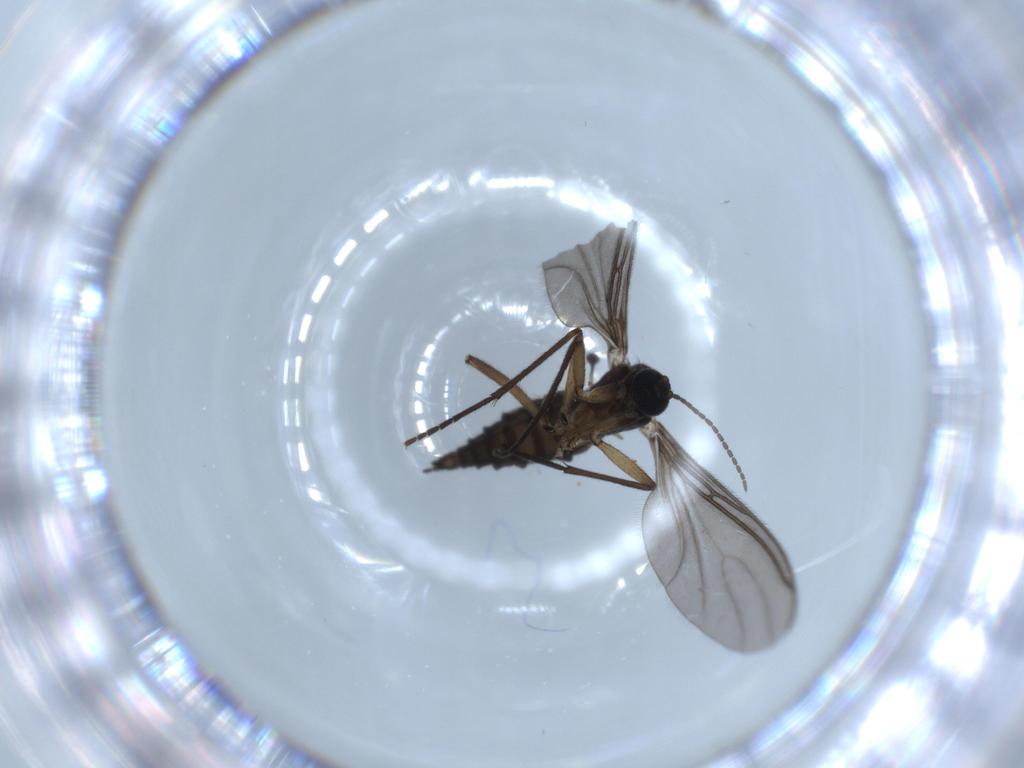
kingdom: Animalia
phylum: Arthropoda
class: Insecta
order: Diptera
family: Sciaridae
